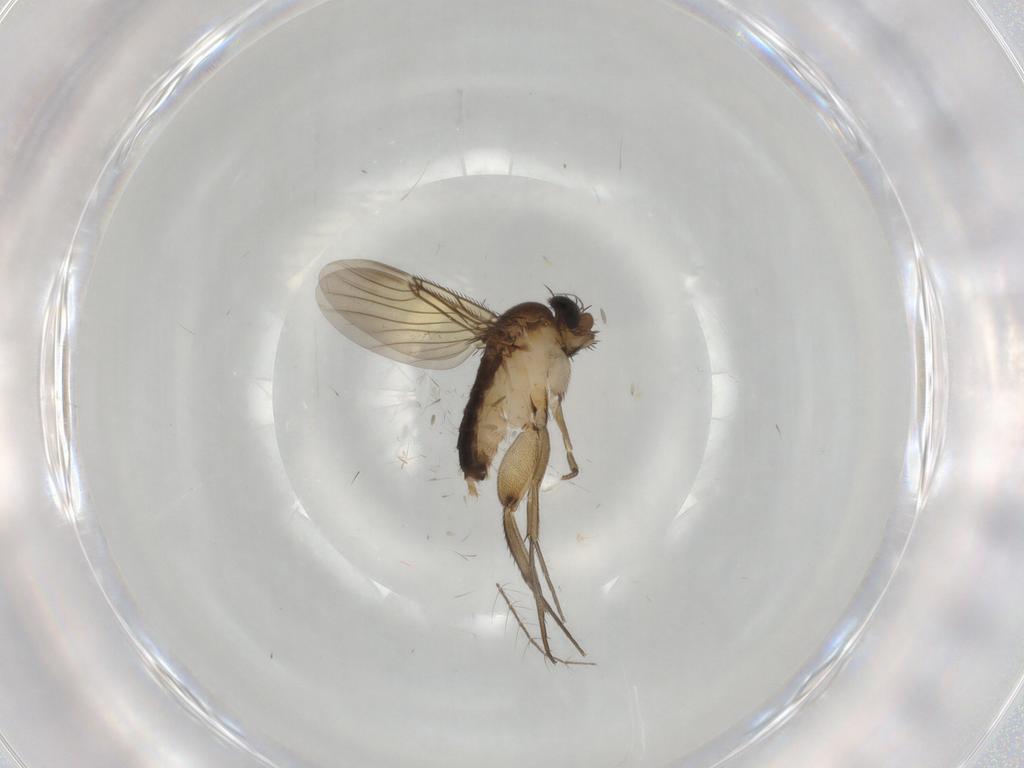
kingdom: Animalia
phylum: Arthropoda
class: Insecta
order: Diptera
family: Phoridae
